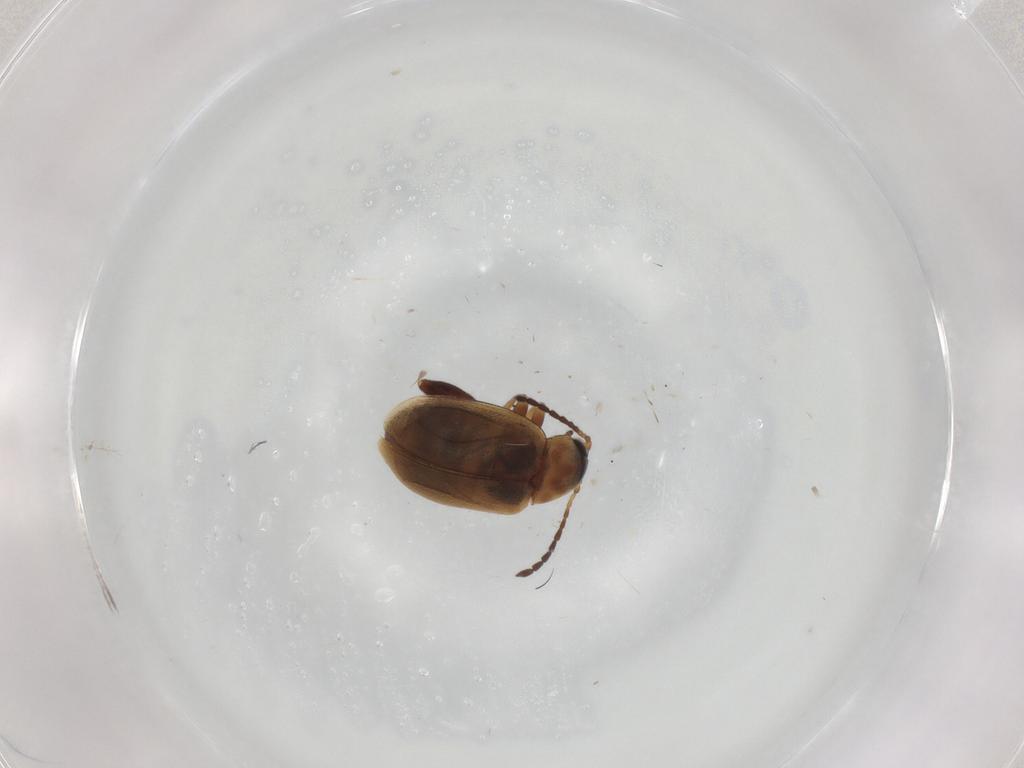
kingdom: Animalia
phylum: Arthropoda
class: Insecta
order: Coleoptera
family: Chrysomelidae
